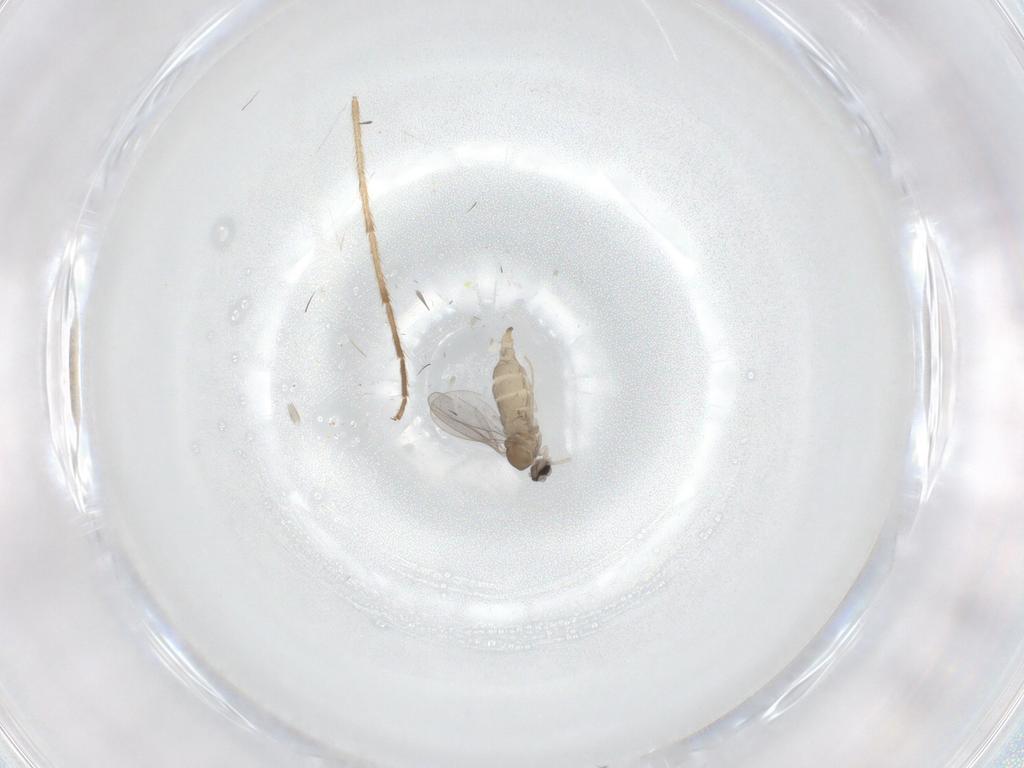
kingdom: Animalia
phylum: Arthropoda
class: Insecta
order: Diptera
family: Cecidomyiidae
